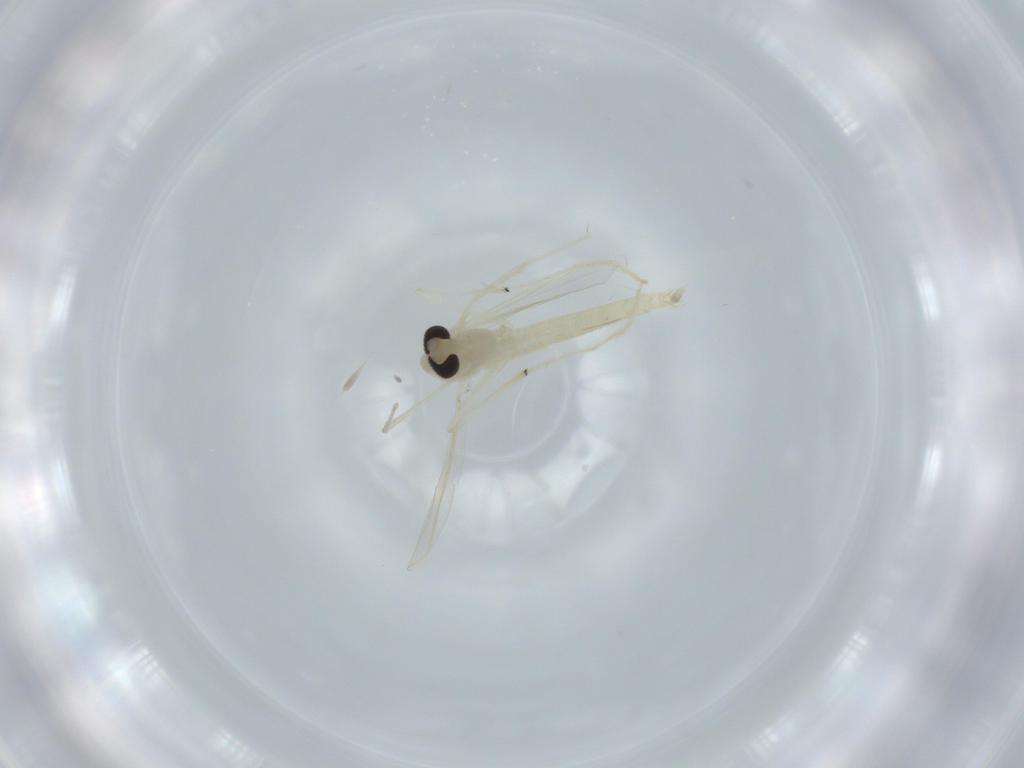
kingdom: Animalia
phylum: Arthropoda
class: Insecta
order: Diptera
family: Chironomidae
